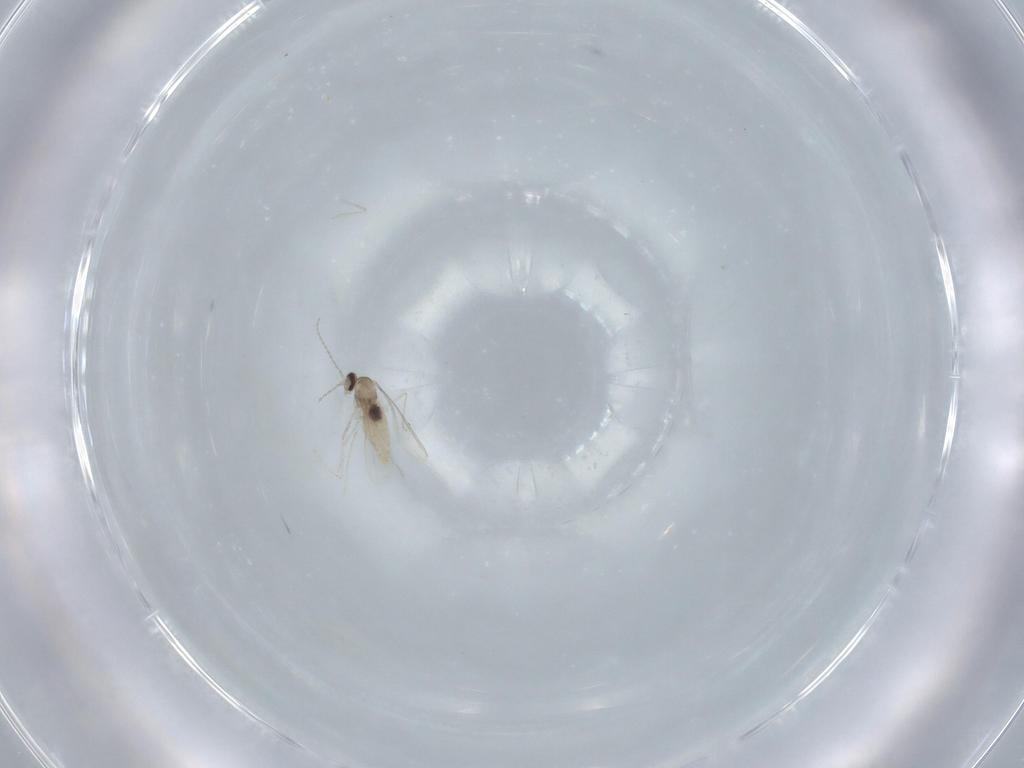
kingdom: Animalia
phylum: Arthropoda
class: Insecta
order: Diptera
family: Cecidomyiidae
